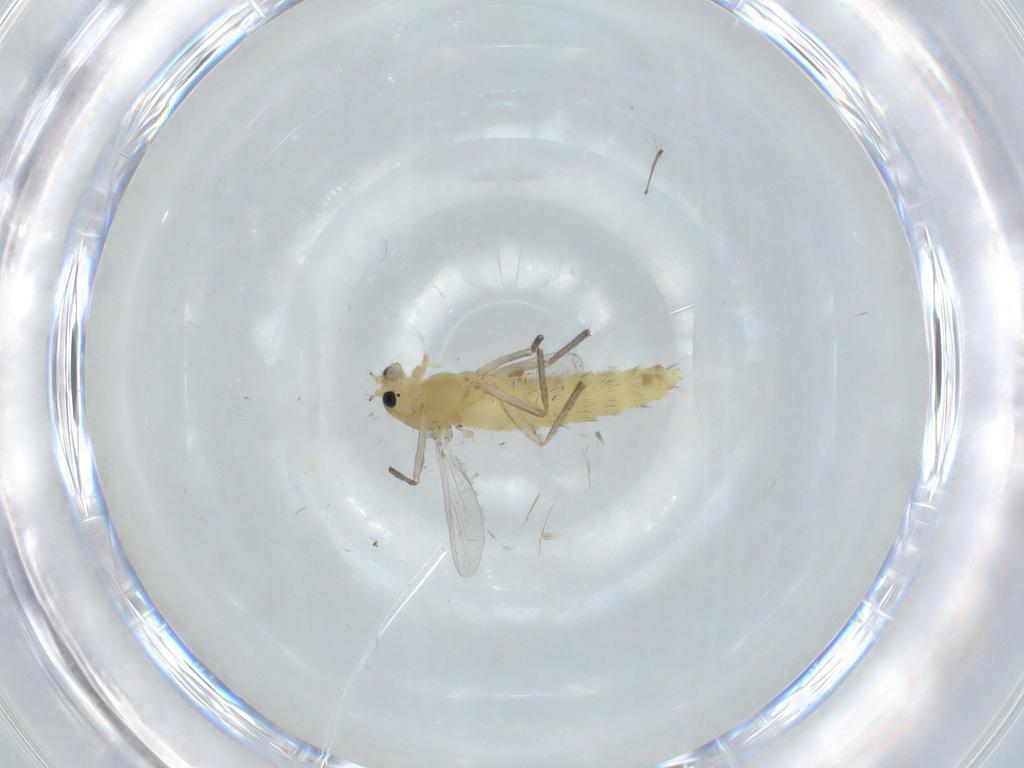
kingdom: Animalia
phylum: Arthropoda
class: Insecta
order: Diptera
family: Chironomidae
